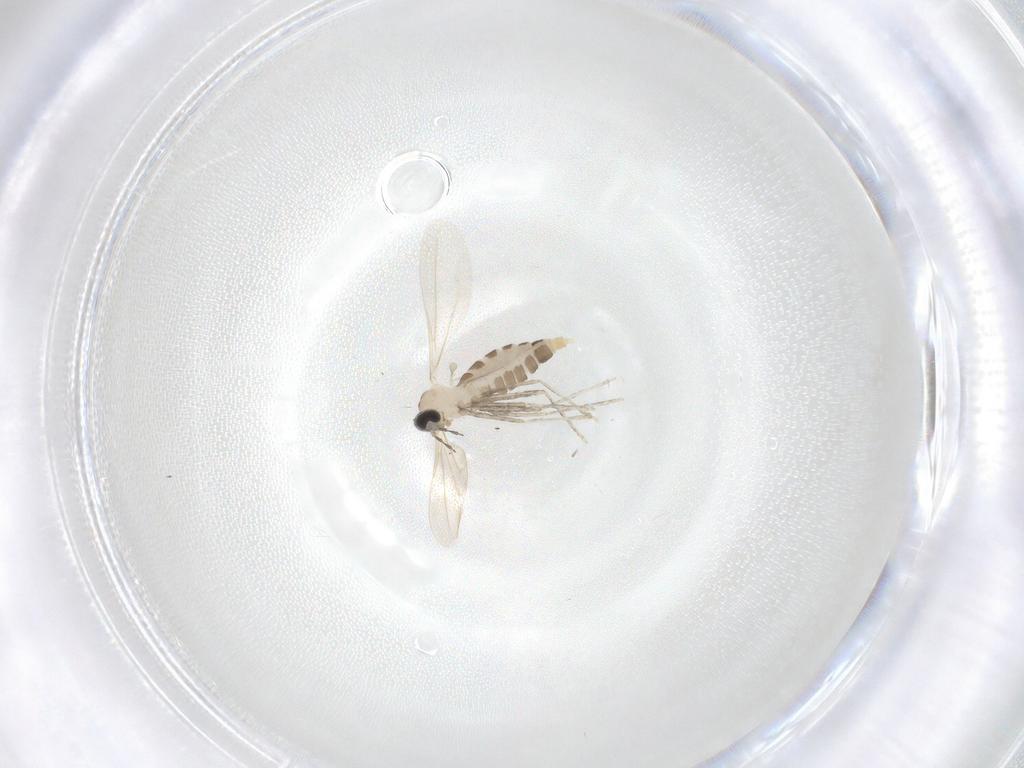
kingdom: Animalia
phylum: Arthropoda
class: Insecta
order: Diptera
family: Cecidomyiidae
